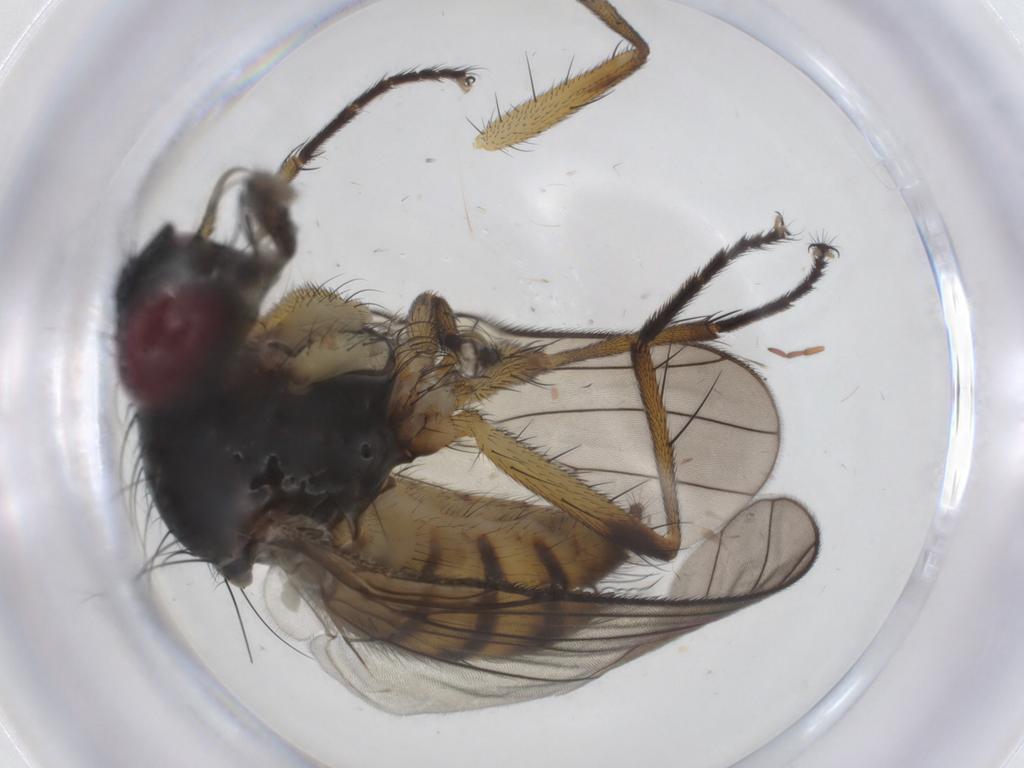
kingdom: Animalia
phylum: Arthropoda
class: Insecta
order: Diptera
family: Muscidae
